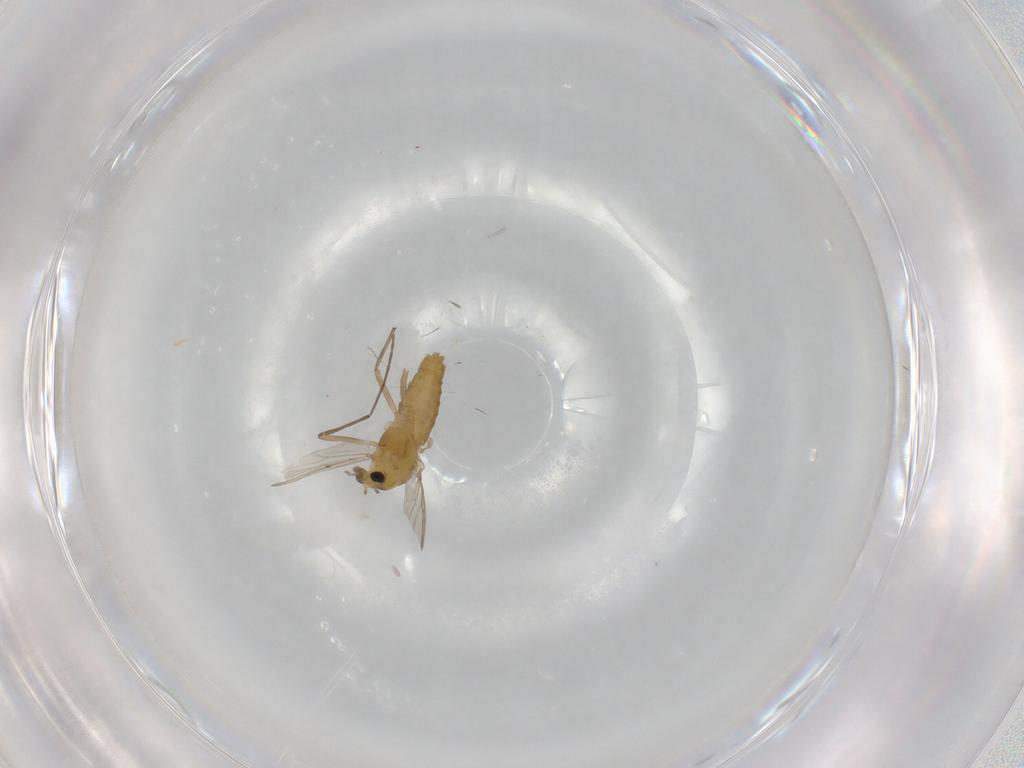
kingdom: Animalia
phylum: Arthropoda
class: Insecta
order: Diptera
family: Chironomidae
